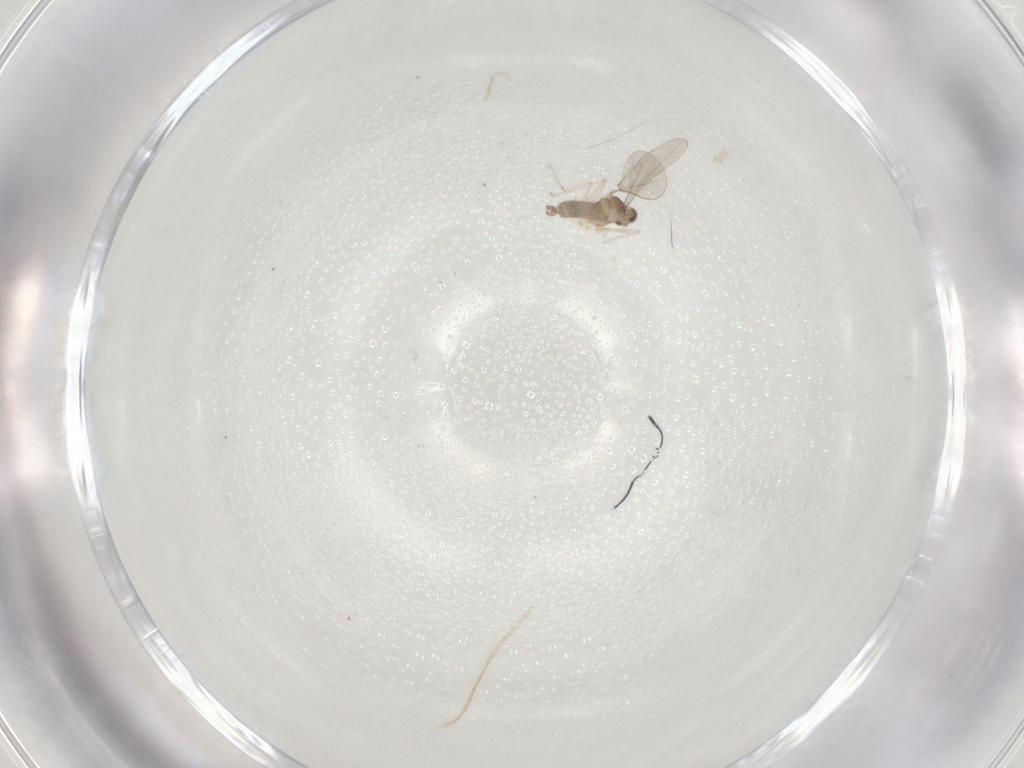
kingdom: Animalia
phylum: Arthropoda
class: Insecta
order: Diptera
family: Cecidomyiidae
